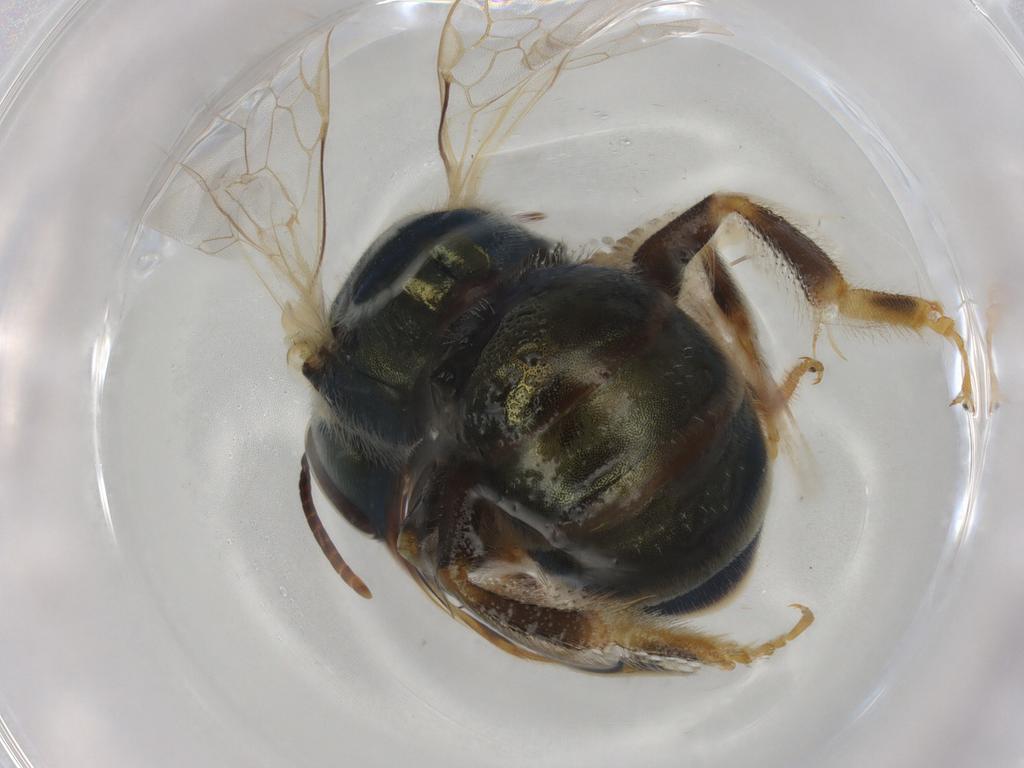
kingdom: Animalia
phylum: Arthropoda
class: Insecta
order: Hymenoptera
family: Halictidae
